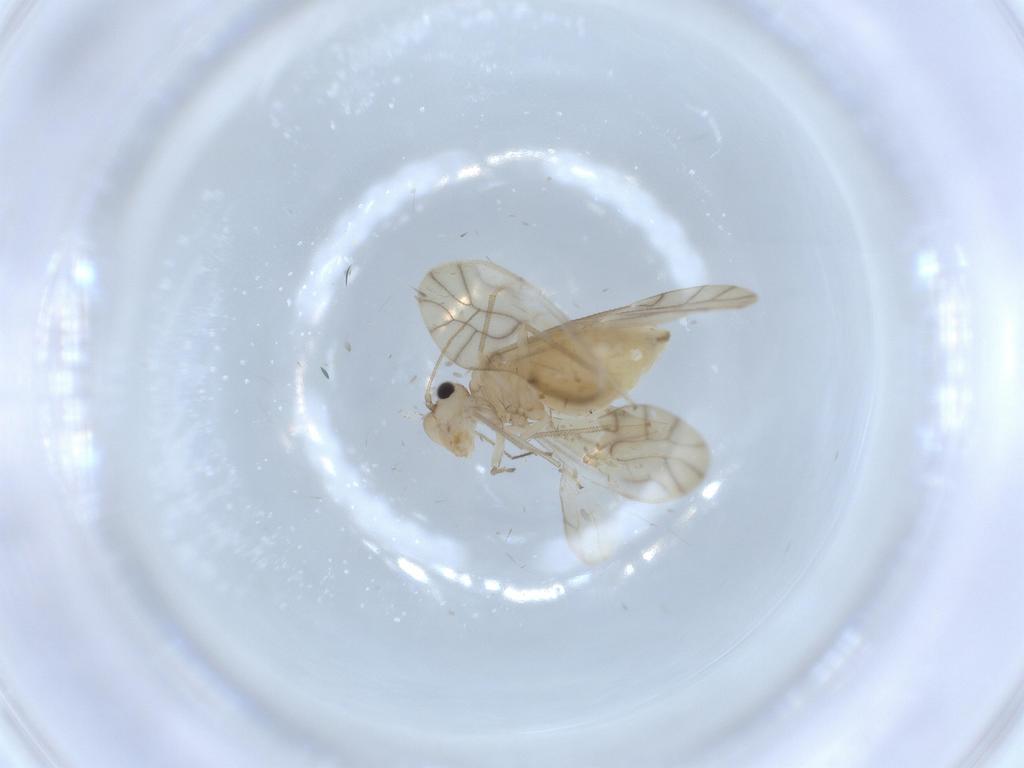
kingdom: Animalia
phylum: Arthropoda
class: Insecta
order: Psocodea
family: Caeciliusidae
